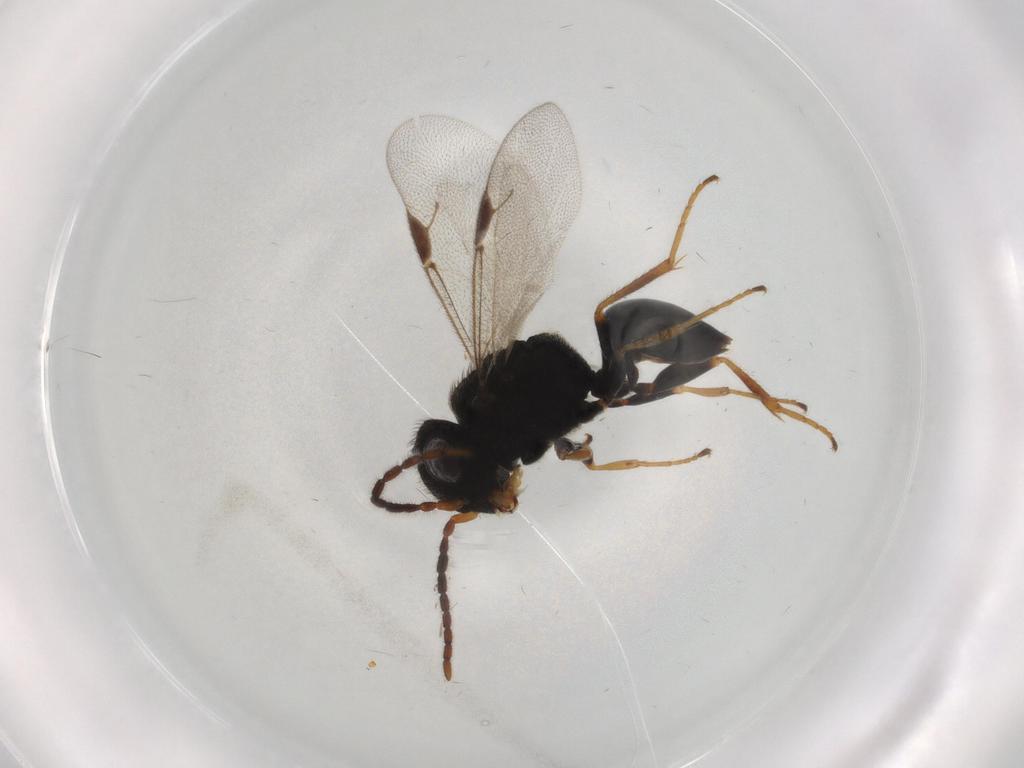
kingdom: Animalia
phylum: Arthropoda
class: Insecta
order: Hymenoptera
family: Dryinidae
